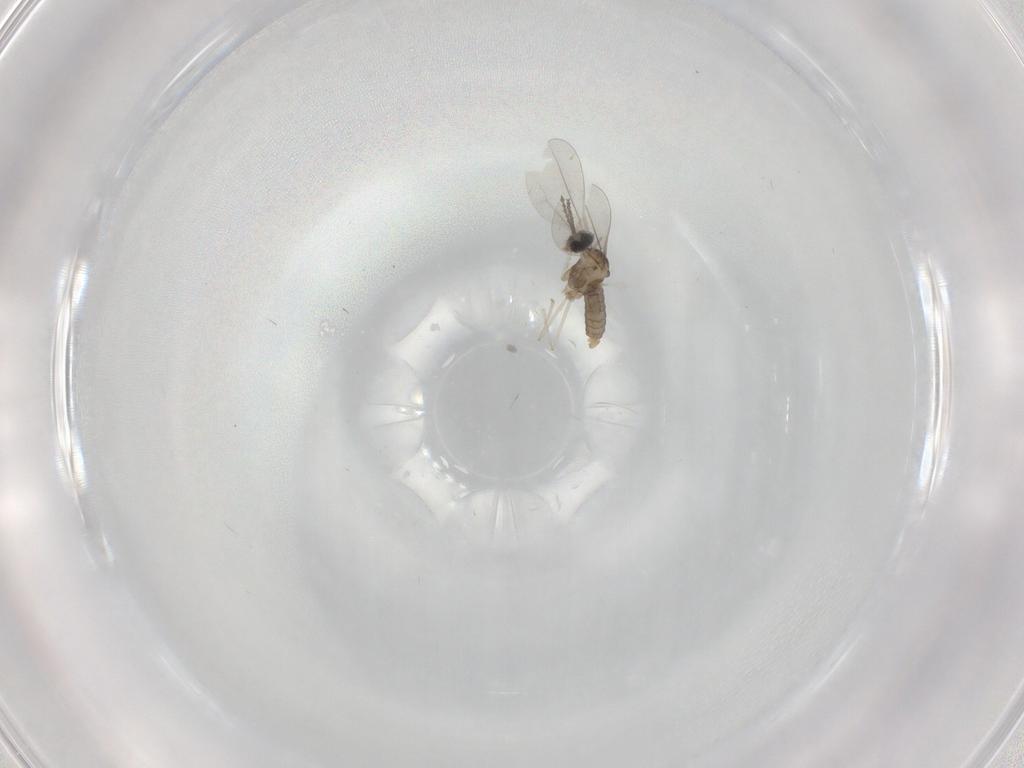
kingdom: Animalia
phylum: Arthropoda
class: Insecta
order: Diptera
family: Cecidomyiidae
